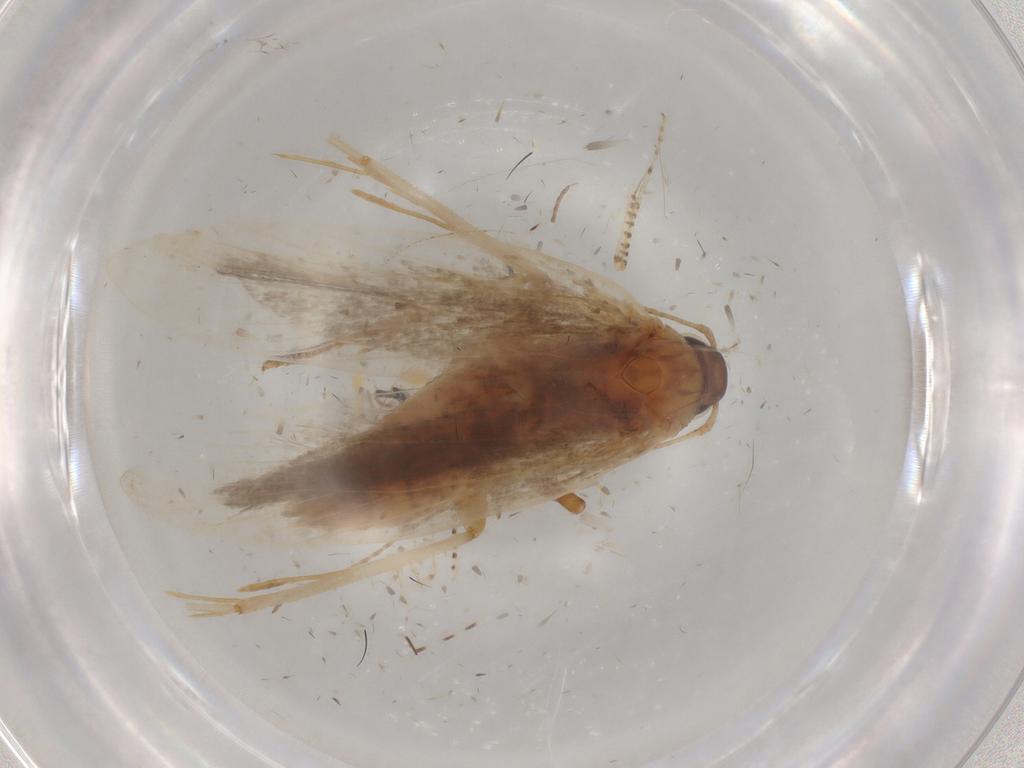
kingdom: Animalia
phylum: Arthropoda
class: Insecta
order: Lepidoptera
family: Gelechiidae
